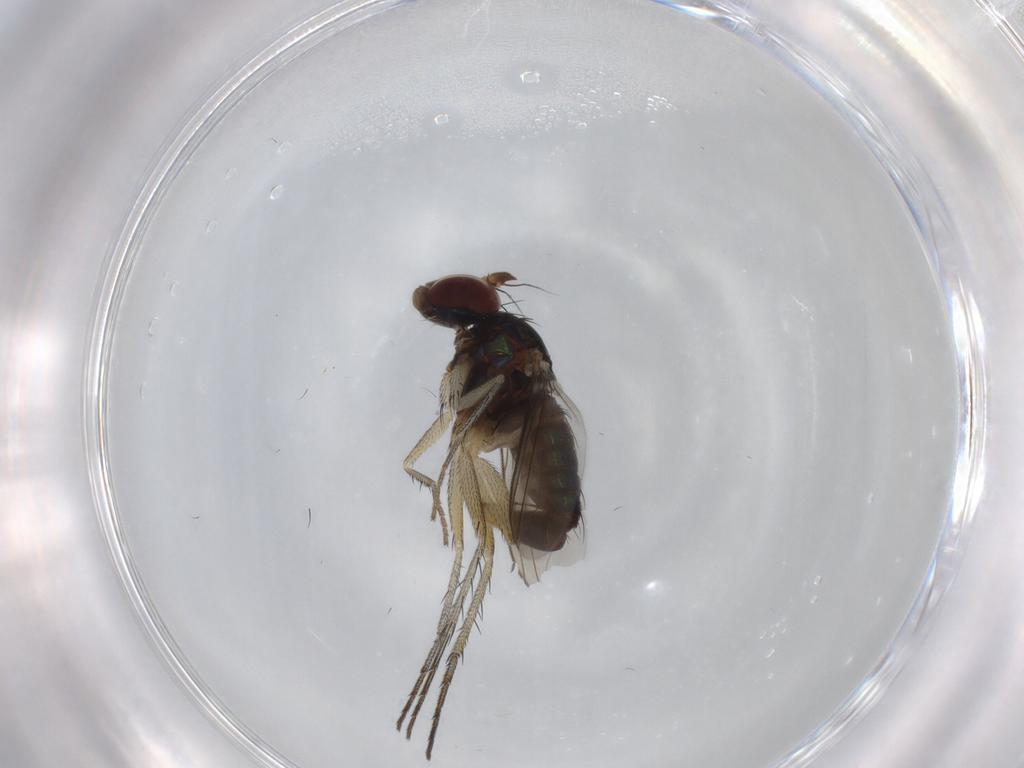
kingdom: Animalia
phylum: Arthropoda
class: Insecta
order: Diptera
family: Dolichopodidae
